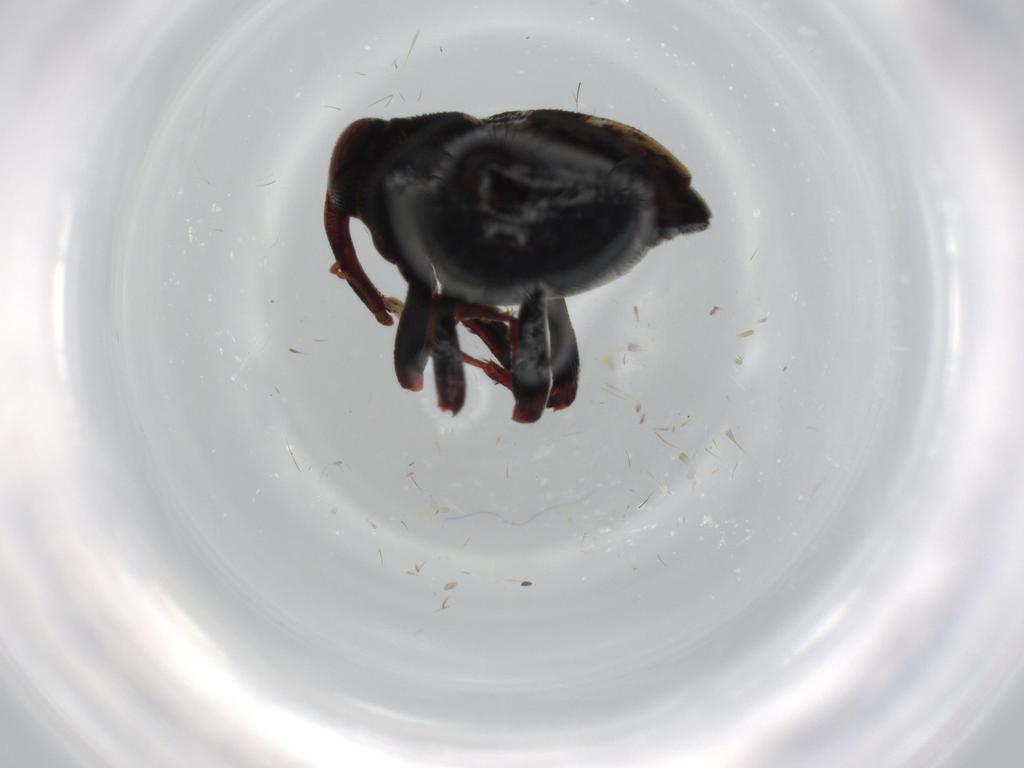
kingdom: Animalia
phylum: Arthropoda
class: Insecta
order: Coleoptera
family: Curculionidae
